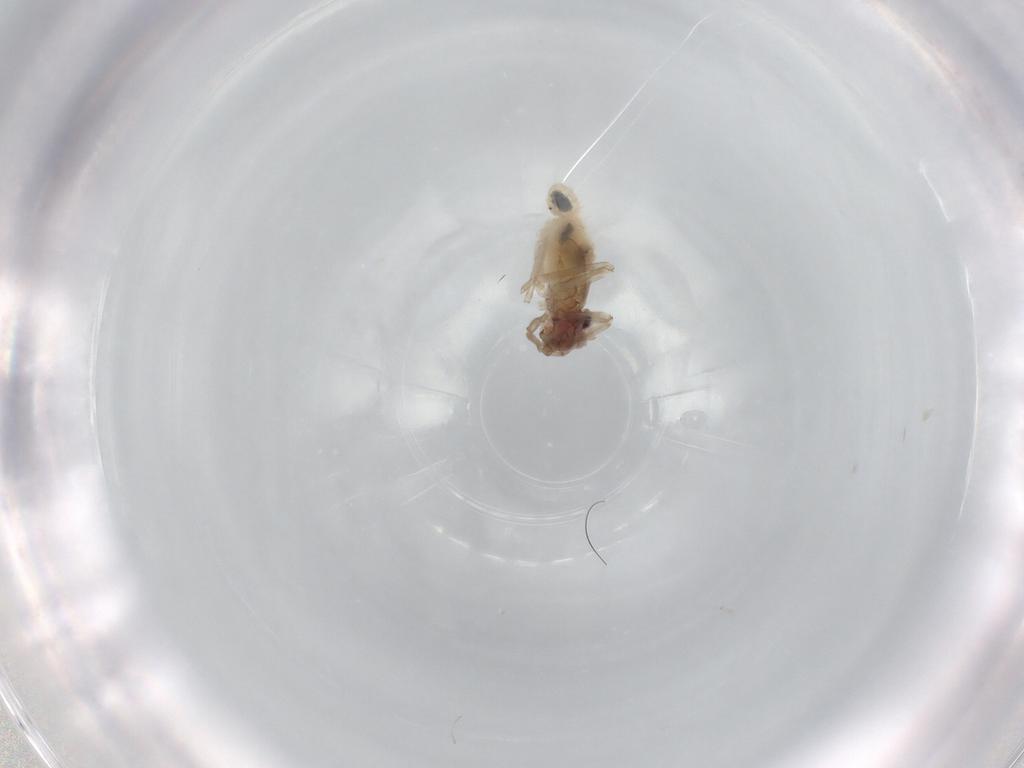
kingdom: Animalia
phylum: Arthropoda
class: Insecta
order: Psocodea
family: Stenopsocidae
